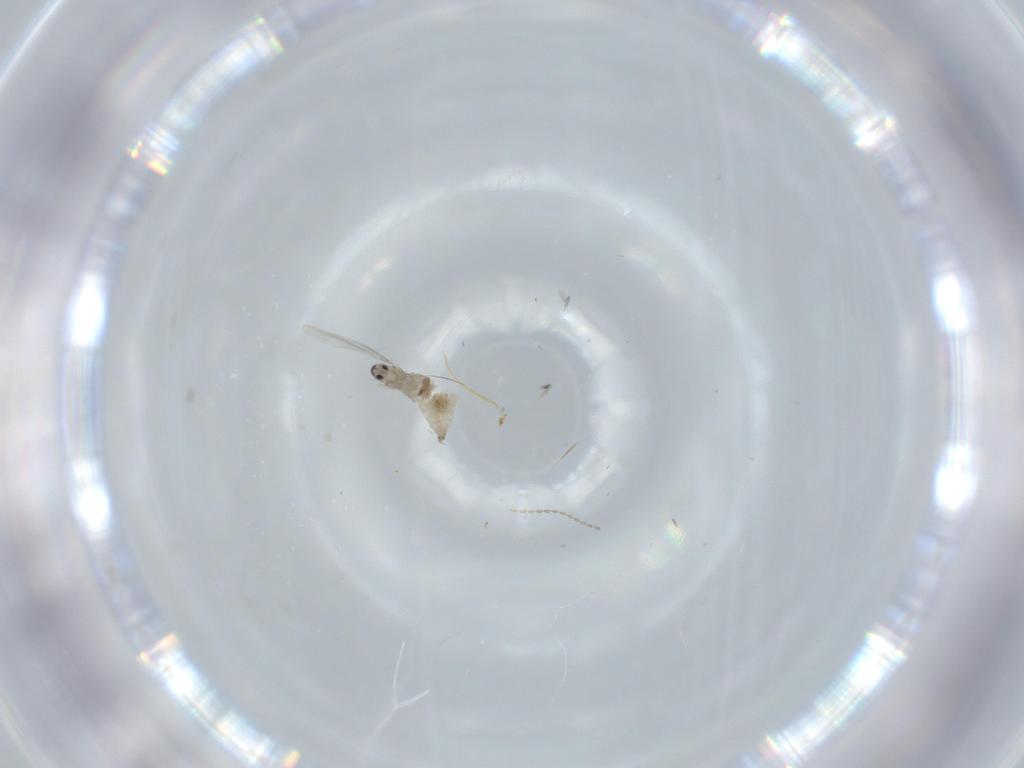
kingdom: Animalia
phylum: Arthropoda
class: Insecta
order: Diptera
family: Cecidomyiidae
